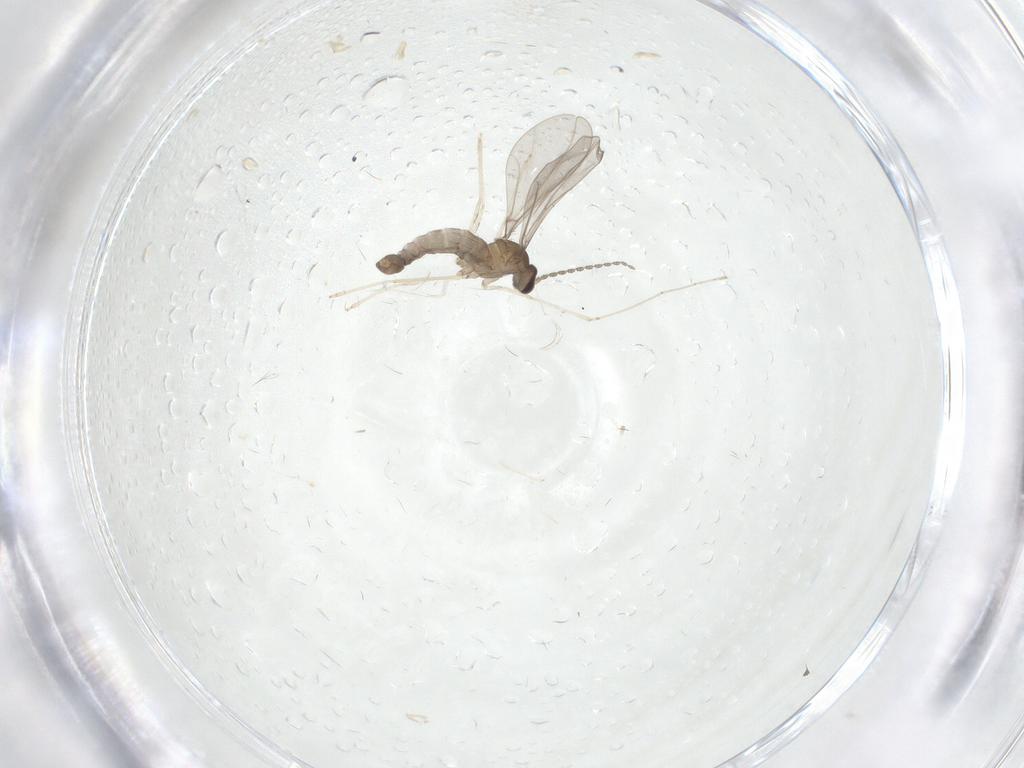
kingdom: Animalia
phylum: Arthropoda
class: Insecta
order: Diptera
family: Cecidomyiidae
